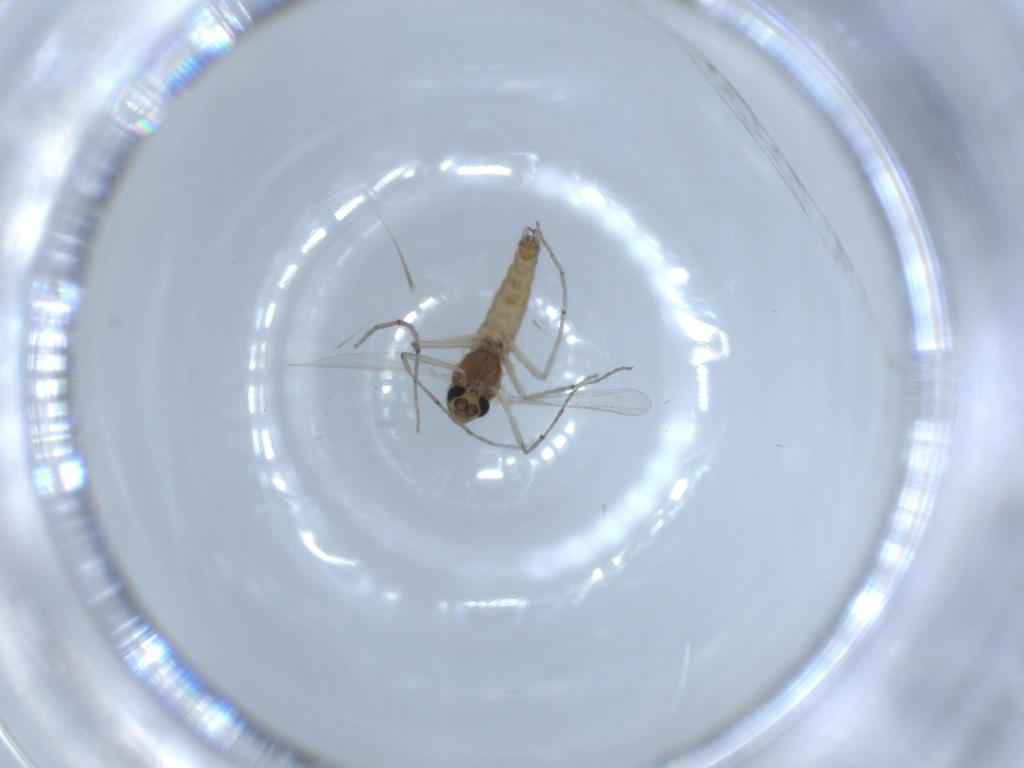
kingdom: Animalia
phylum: Arthropoda
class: Insecta
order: Diptera
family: Chironomidae
